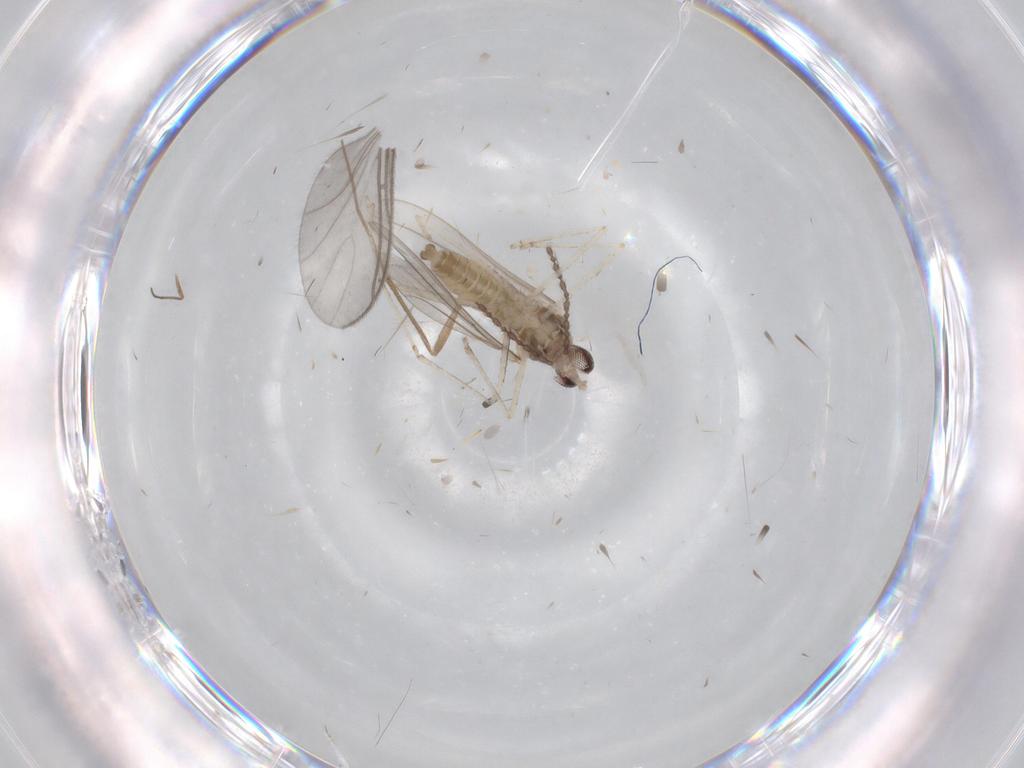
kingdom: Animalia
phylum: Arthropoda
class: Insecta
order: Diptera
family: Cecidomyiidae
